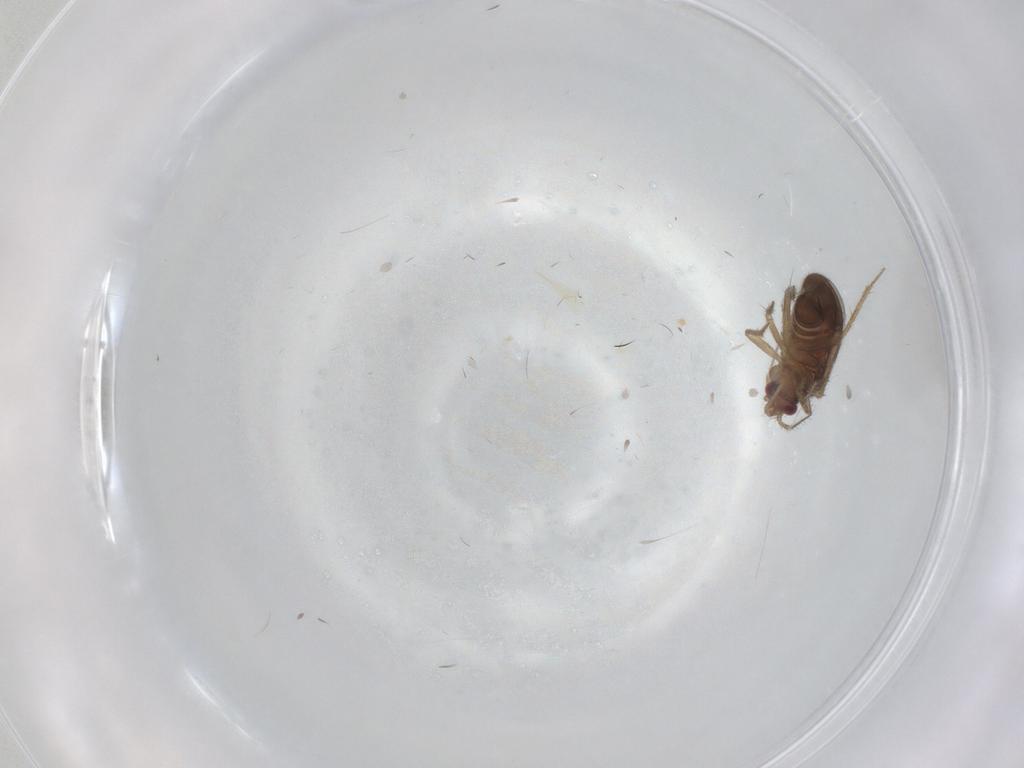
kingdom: Animalia
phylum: Arthropoda
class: Insecta
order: Hemiptera
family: Ceratocombidae
